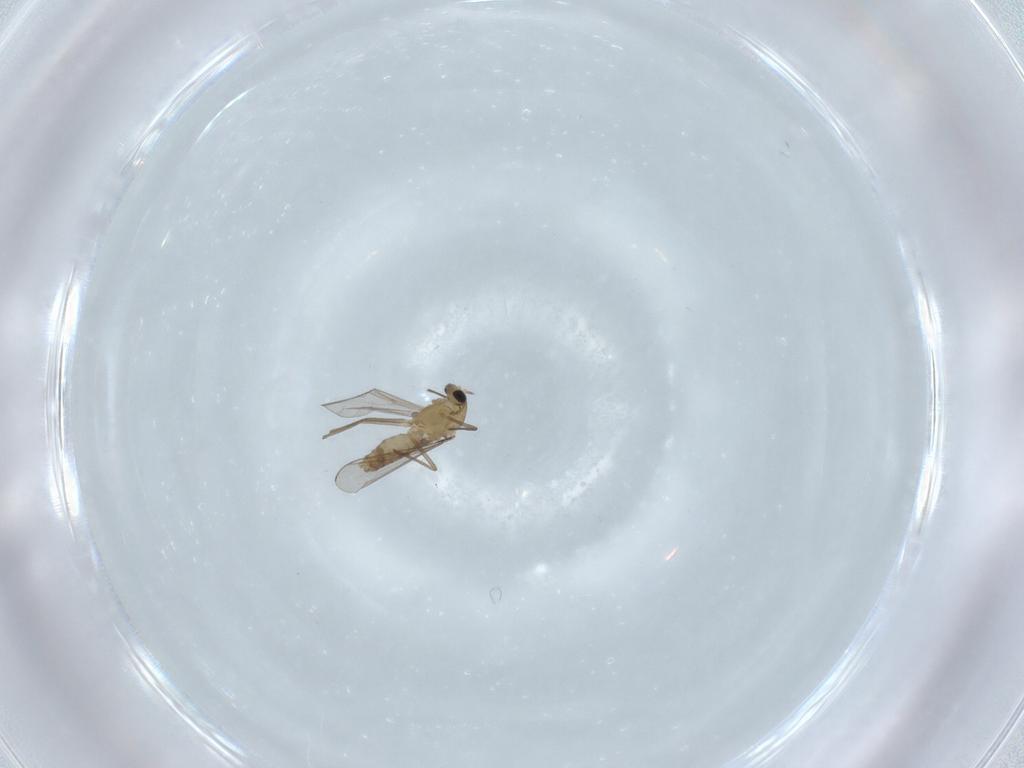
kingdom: Animalia
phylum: Arthropoda
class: Insecta
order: Diptera
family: Chironomidae
